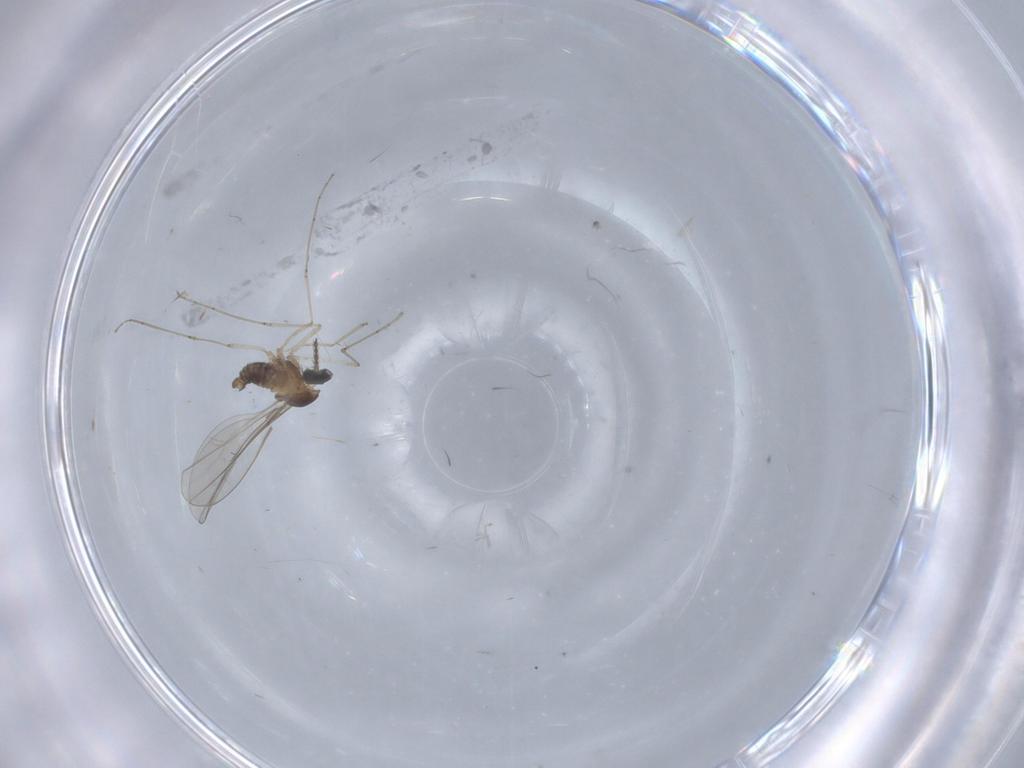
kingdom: Animalia
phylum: Arthropoda
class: Insecta
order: Diptera
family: Cecidomyiidae
